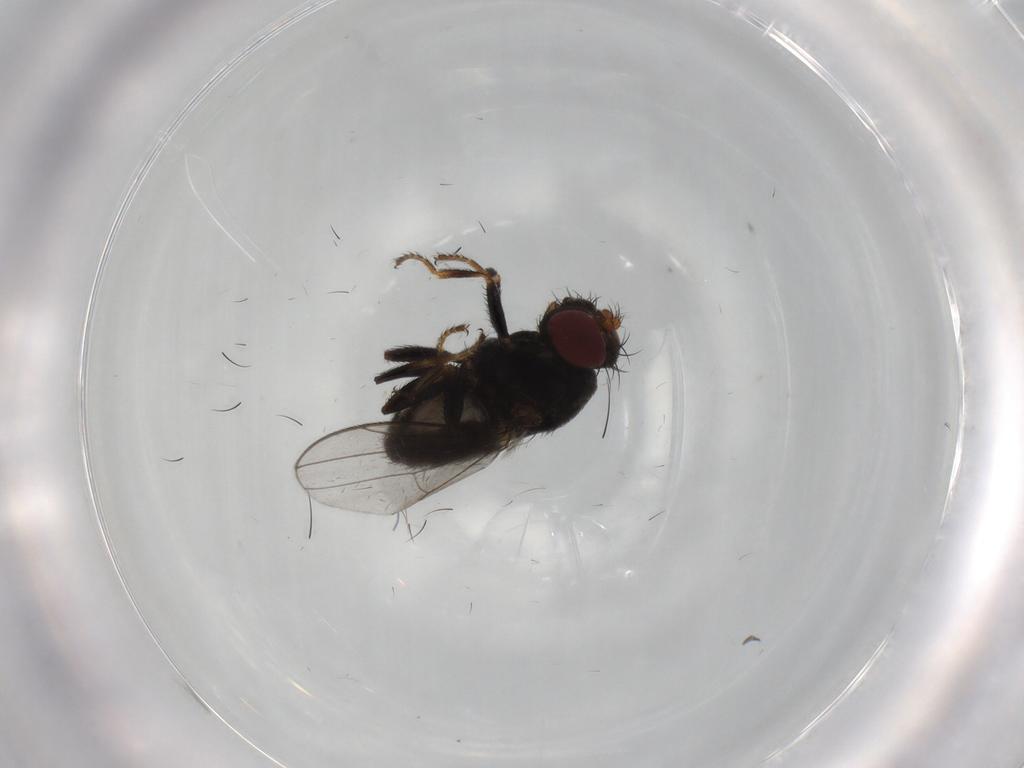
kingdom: Animalia
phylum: Arthropoda
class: Insecta
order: Diptera
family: Ephydridae
